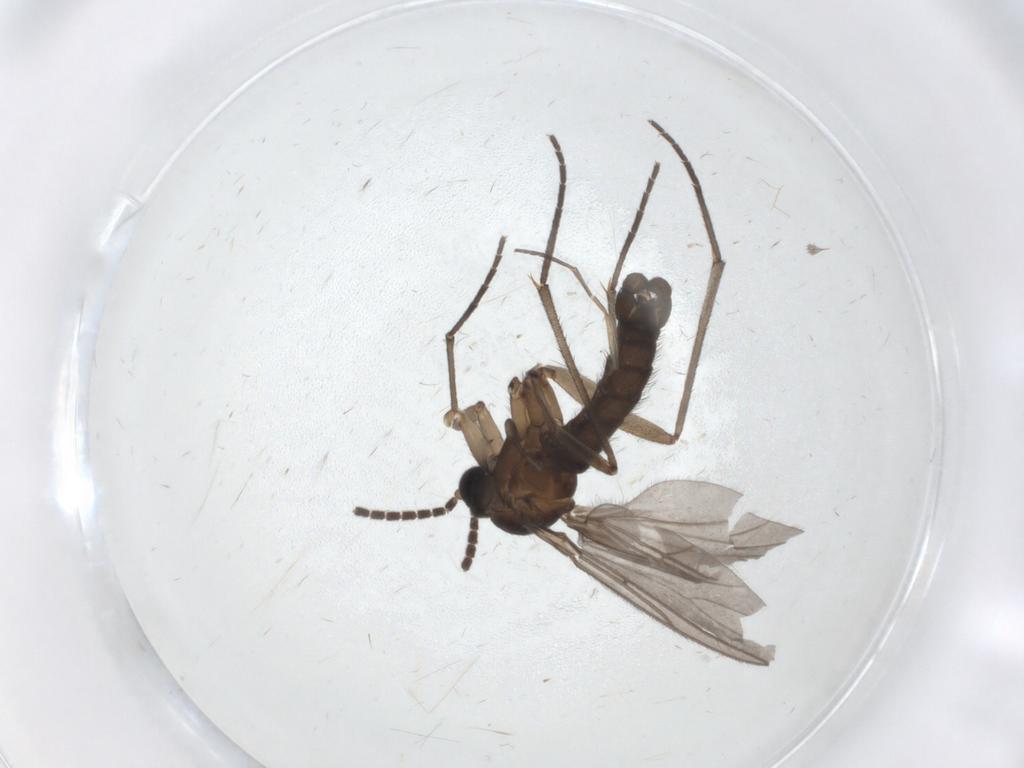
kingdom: Animalia
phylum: Arthropoda
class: Insecta
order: Diptera
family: Sciaridae
